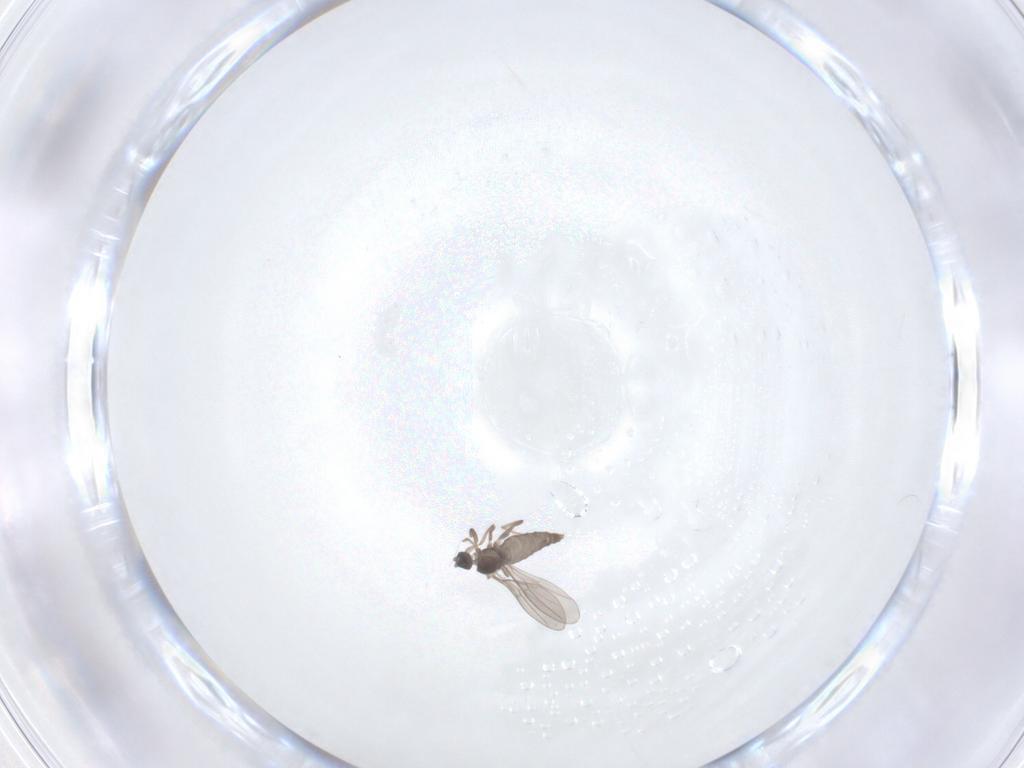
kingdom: Animalia
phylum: Arthropoda
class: Insecta
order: Diptera
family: Cecidomyiidae
